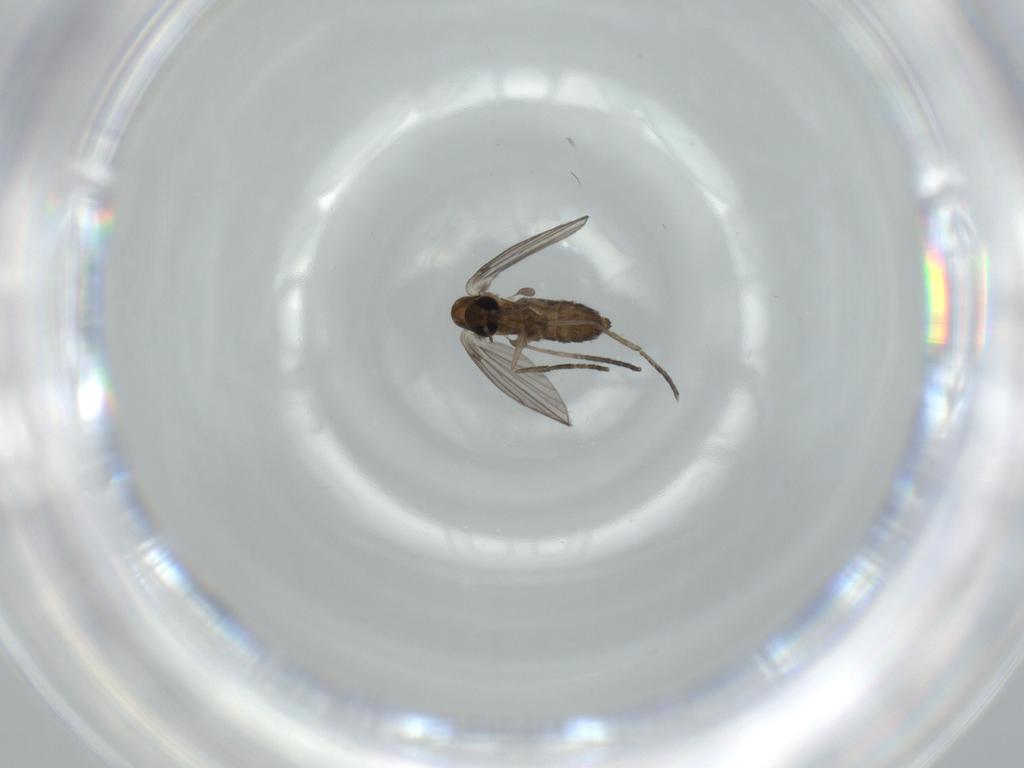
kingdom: Animalia
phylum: Arthropoda
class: Insecta
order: Diptera
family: Psychodidae
